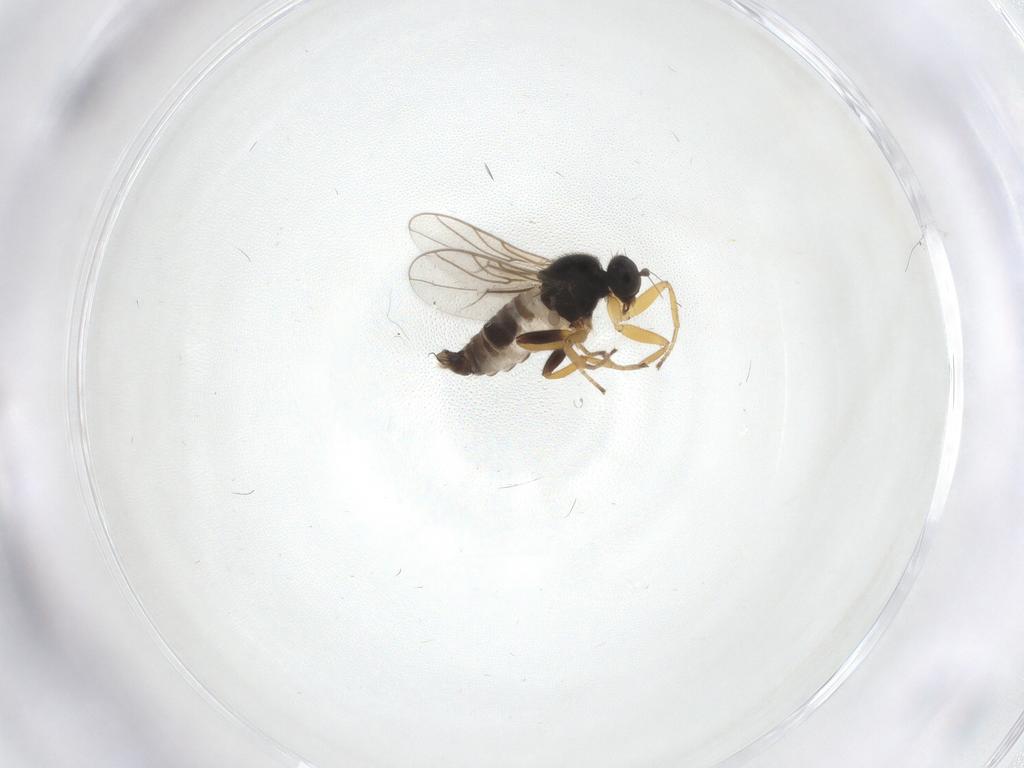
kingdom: Animalia
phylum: Arthropoda
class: Insecta
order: Diptera
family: Hybotidae
